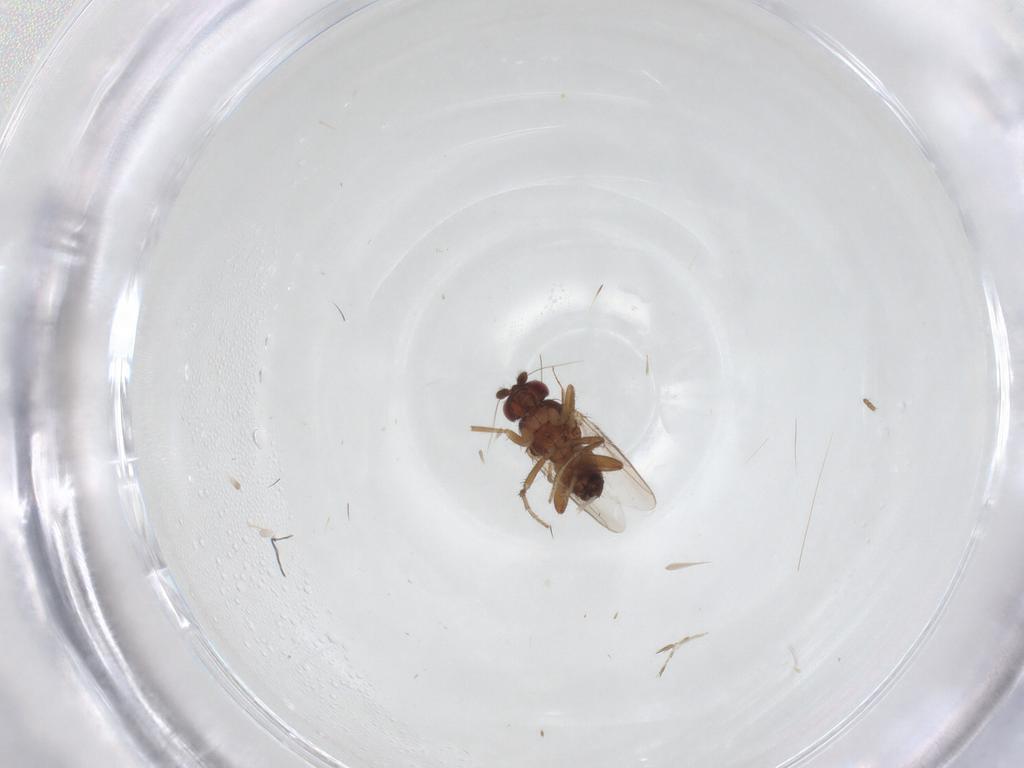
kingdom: Animalia
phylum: Arthropoda
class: Insecta
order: Diptera
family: Sphaeroceridae
